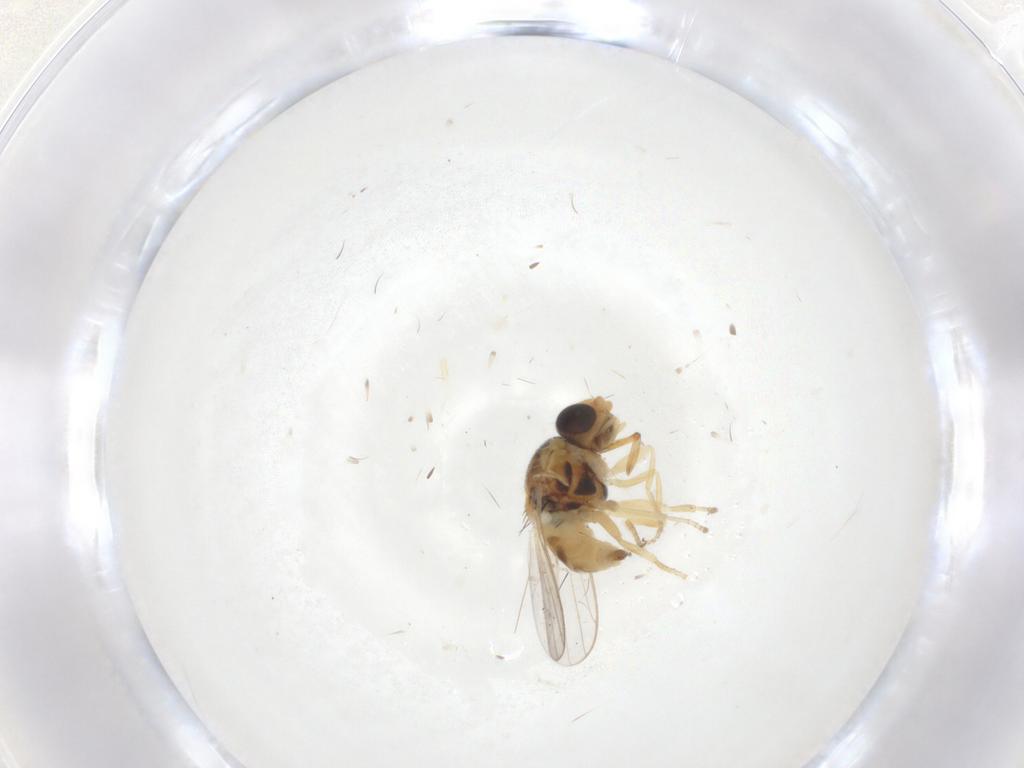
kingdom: Animalia
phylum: Arthropoda
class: Insecta
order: Diptera
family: Chloropidae
